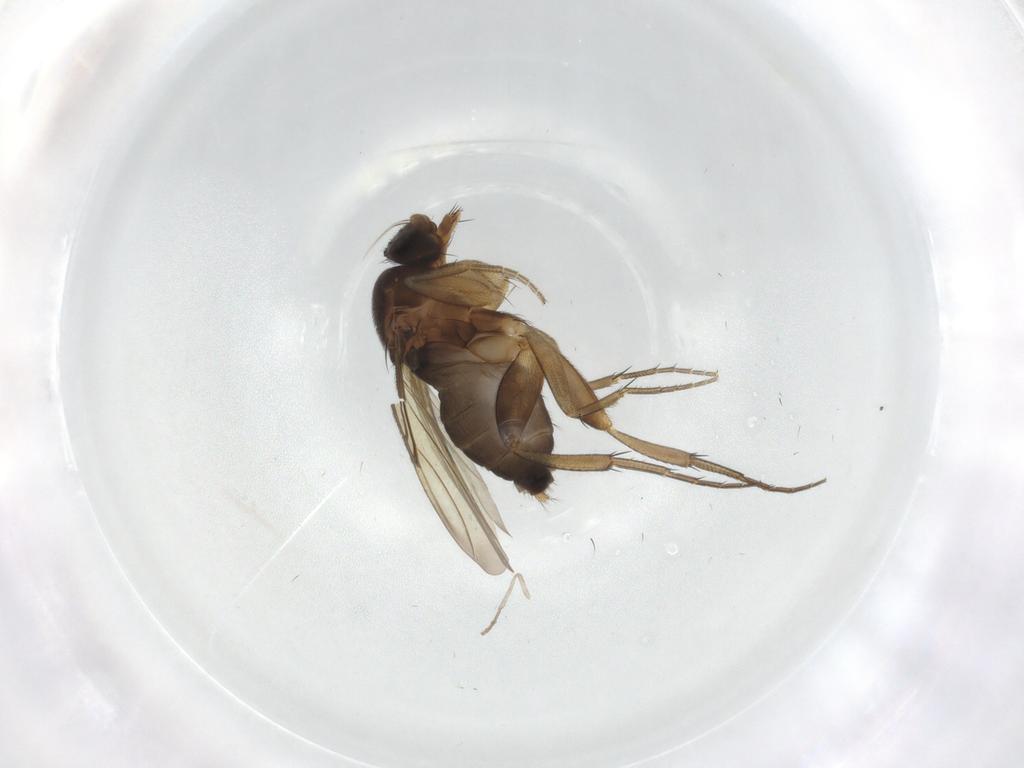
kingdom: Animalia
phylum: Arthropoda
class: Insecta
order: Diptera
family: Phoridae
